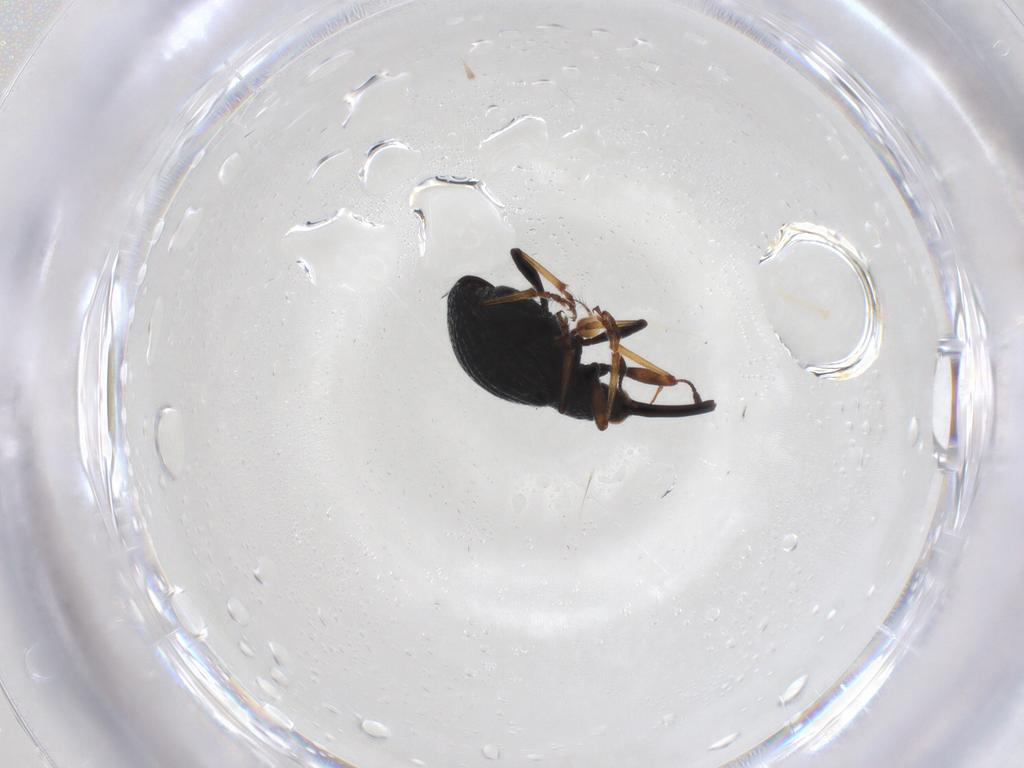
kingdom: Animalia
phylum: Arthropoda
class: Insecta
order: Coleoptera
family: Brentidae
